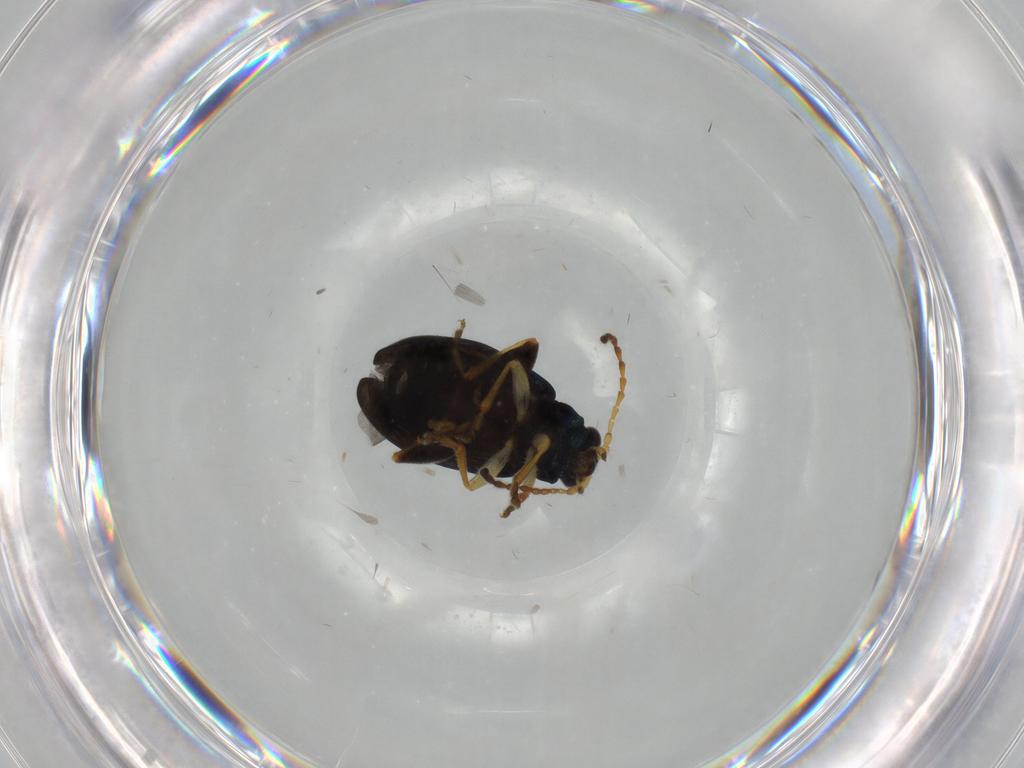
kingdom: Animalia
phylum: Arthropoda
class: Insecta
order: Coleoptera
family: Chrysomelidae
